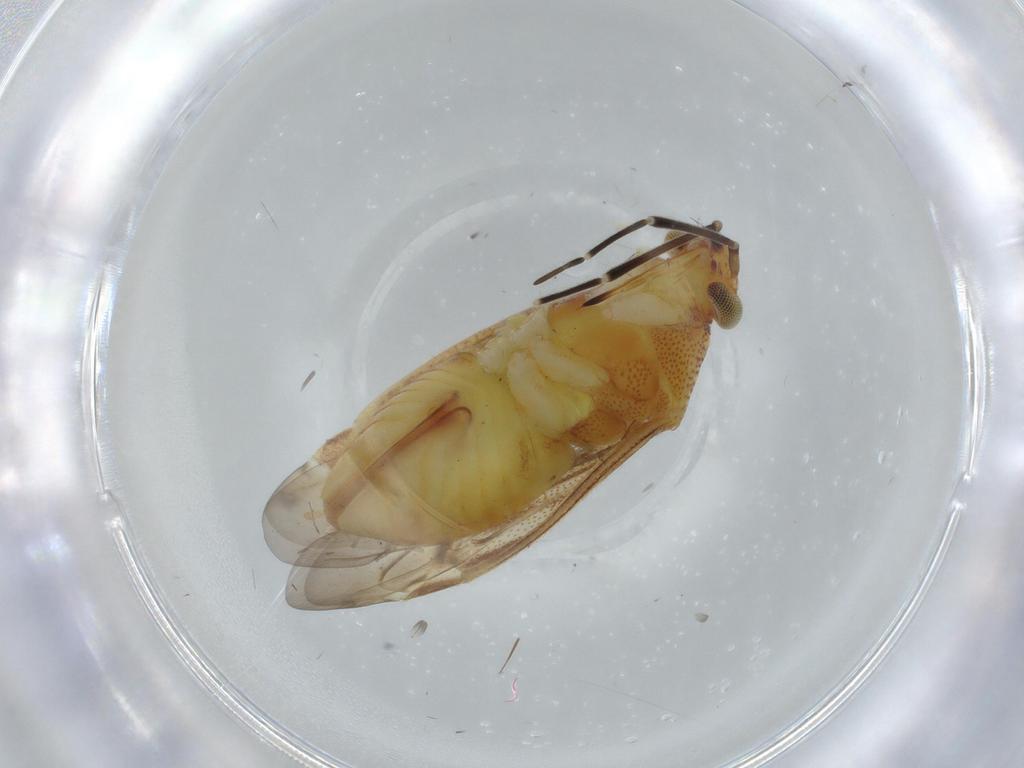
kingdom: Animalia
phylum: Arthropoda
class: Insecta
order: Hemiptera
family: Miridae
